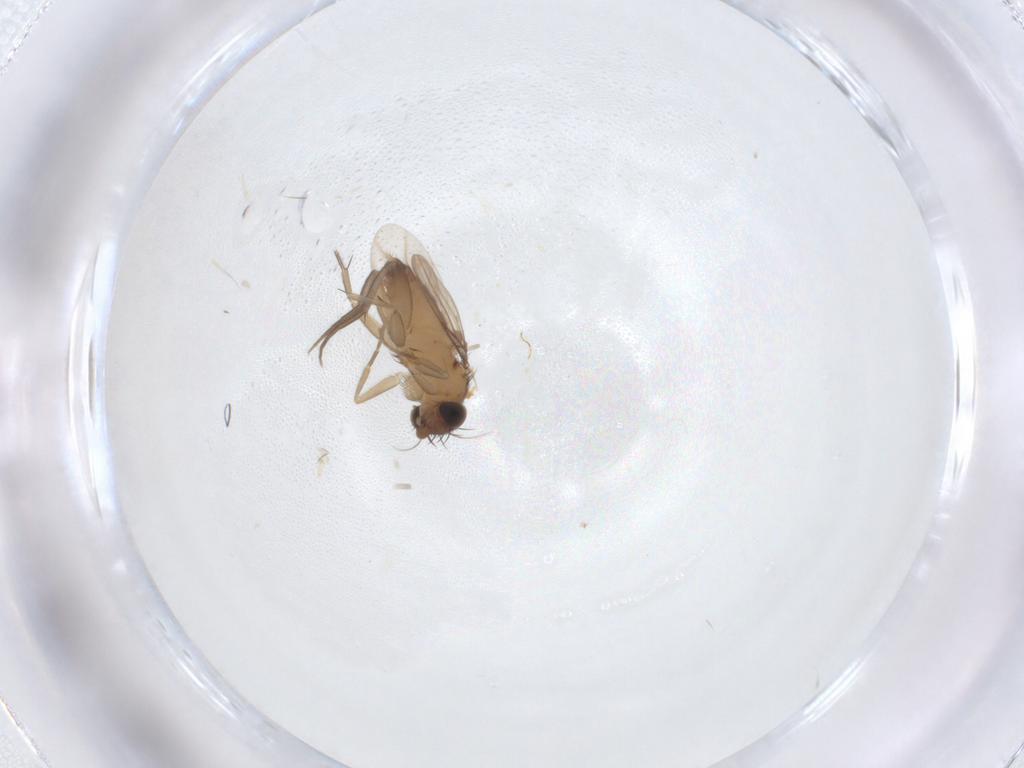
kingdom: Animalia
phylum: Arthropoda
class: Insecta
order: Diptera
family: Phoridae
